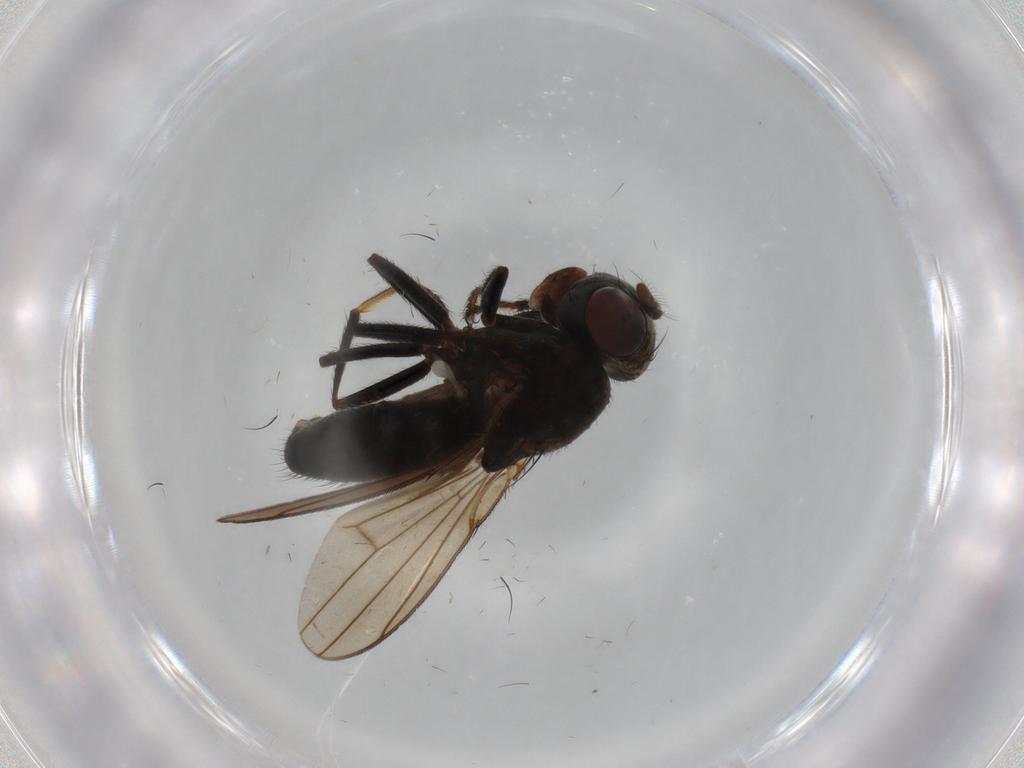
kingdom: Animalia
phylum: Arthropoda
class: Insecta
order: Diptera
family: Ephydridae
